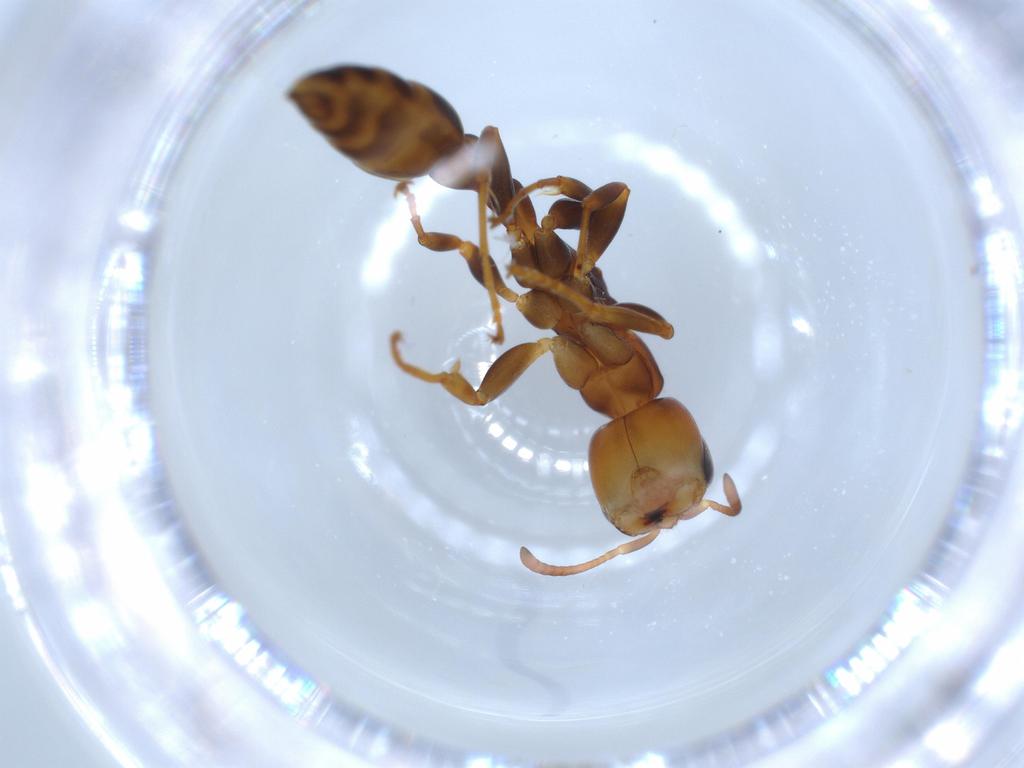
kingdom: Animalia
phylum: Arthropoda
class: Insecta
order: Hymenoptera
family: Formicidae
